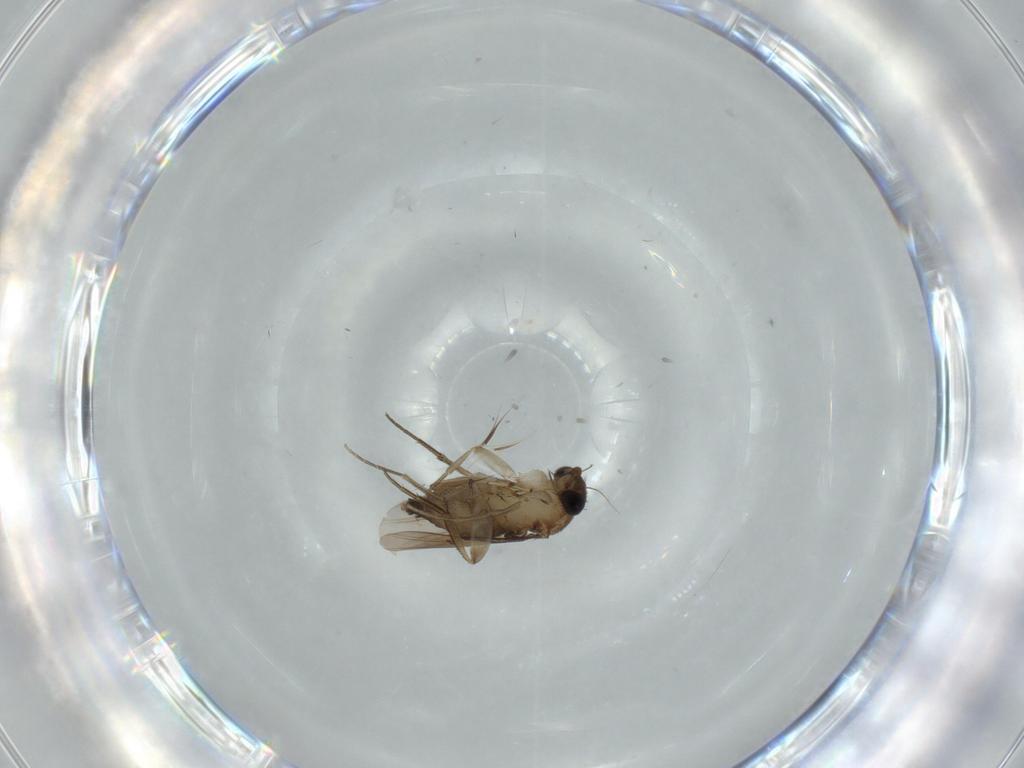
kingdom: Animalia
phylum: Arthropoda
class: Insecta
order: Diptera
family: Phoridae
